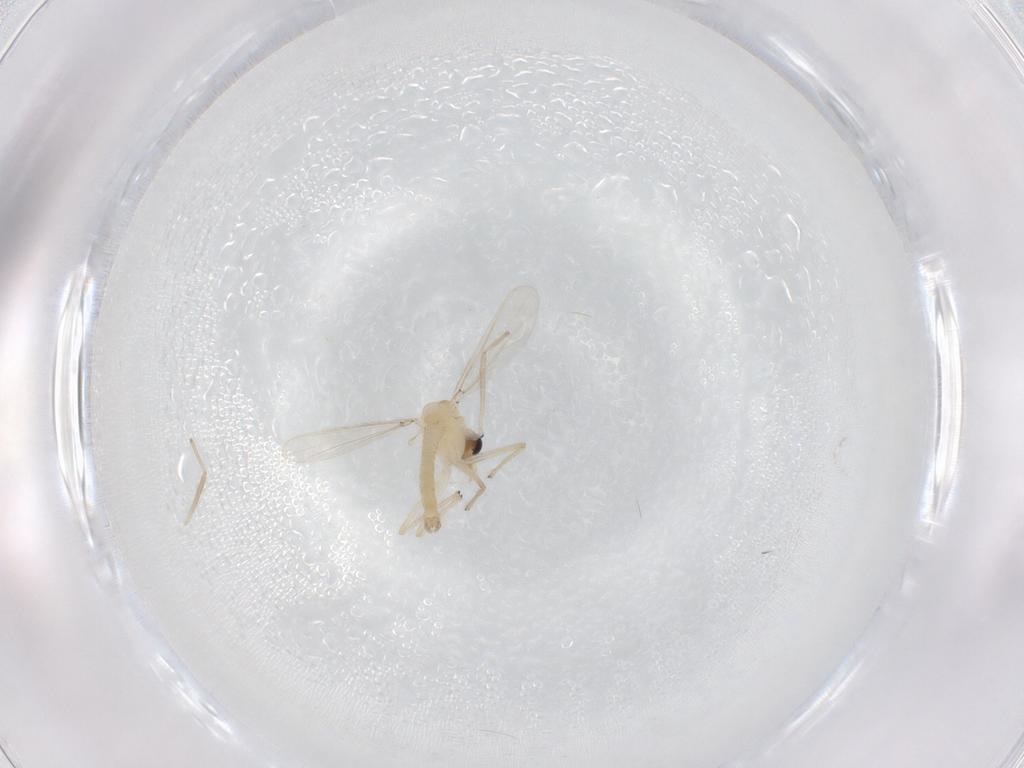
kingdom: Animalia
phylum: Arthropoda
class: Insecta
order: Diptera
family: Chironomidae
